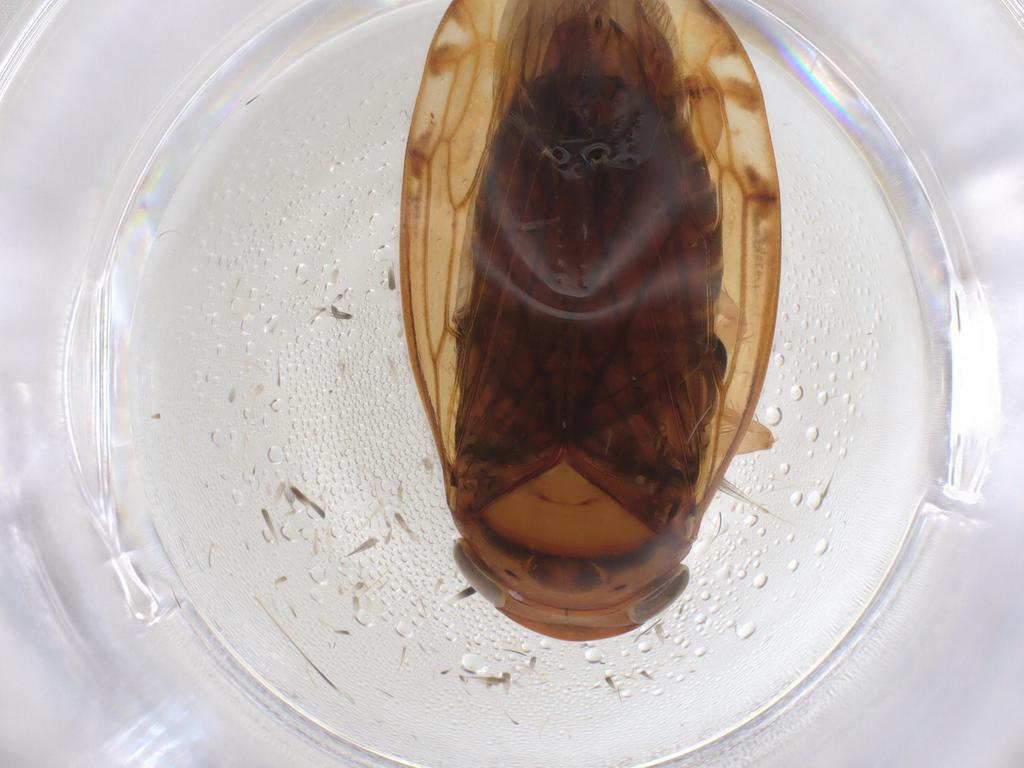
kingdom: Animalia
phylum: Arthropoda
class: Insecta
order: Hemiptera
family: Cicadellidae
